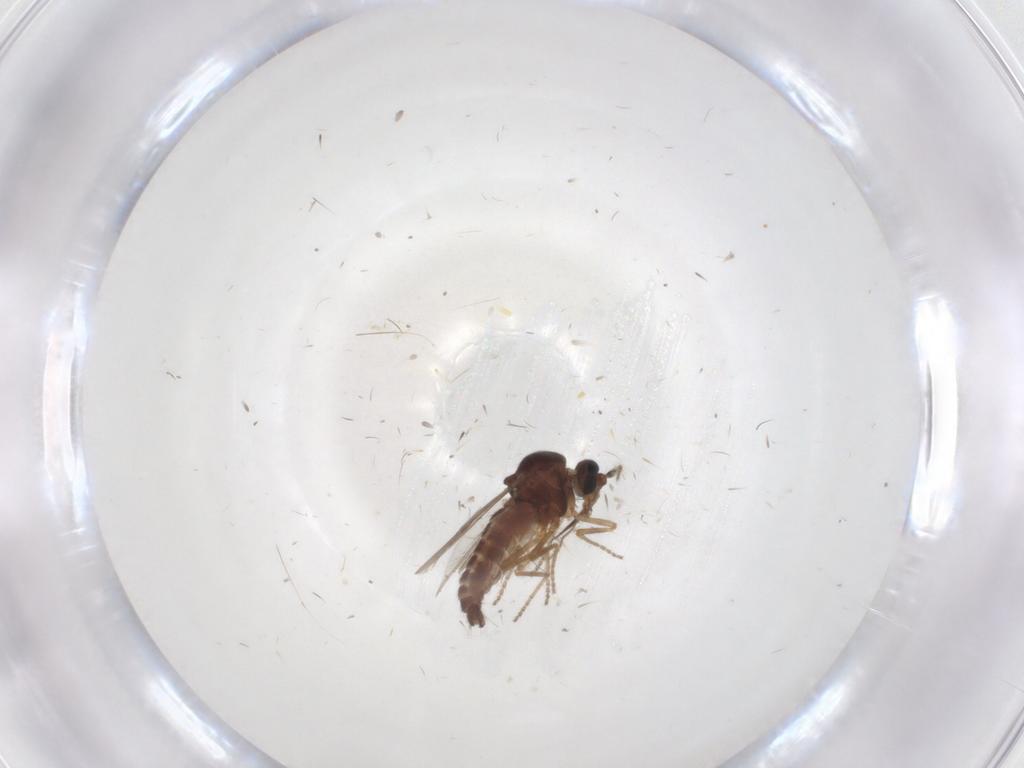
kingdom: Animalia
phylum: Arthropoda
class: Insecta
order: Diptera
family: Ceratopogonidae
